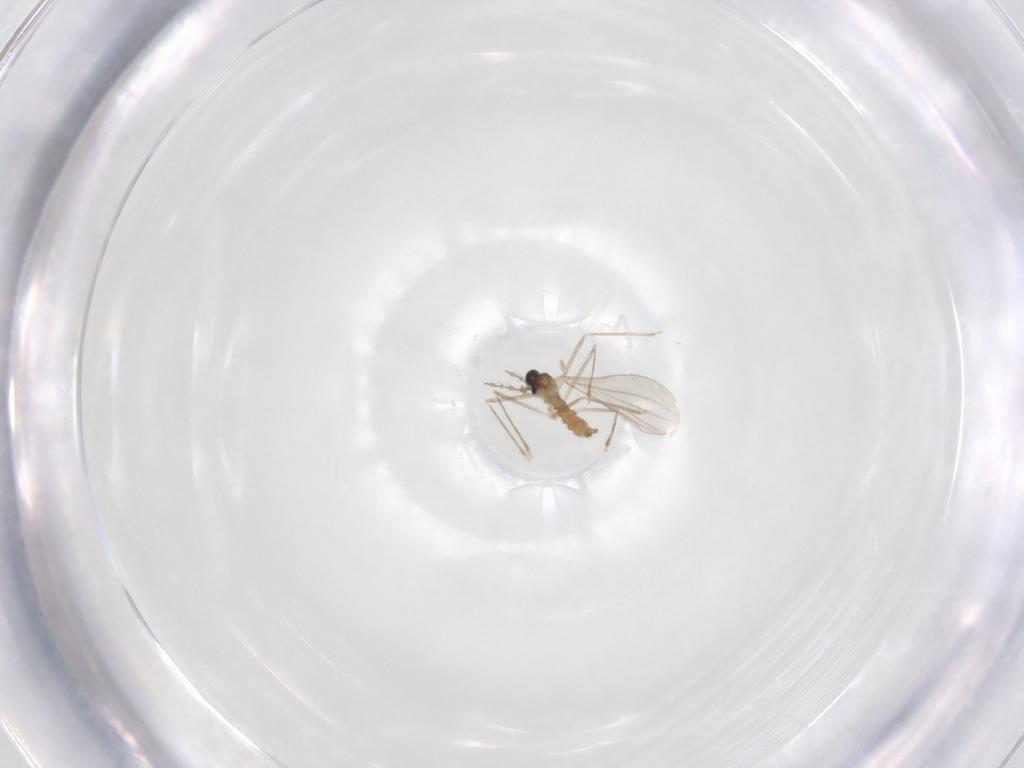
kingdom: Animalia
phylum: Arthropoda
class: Insecta
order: Diptera
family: Cecidomyiidae
